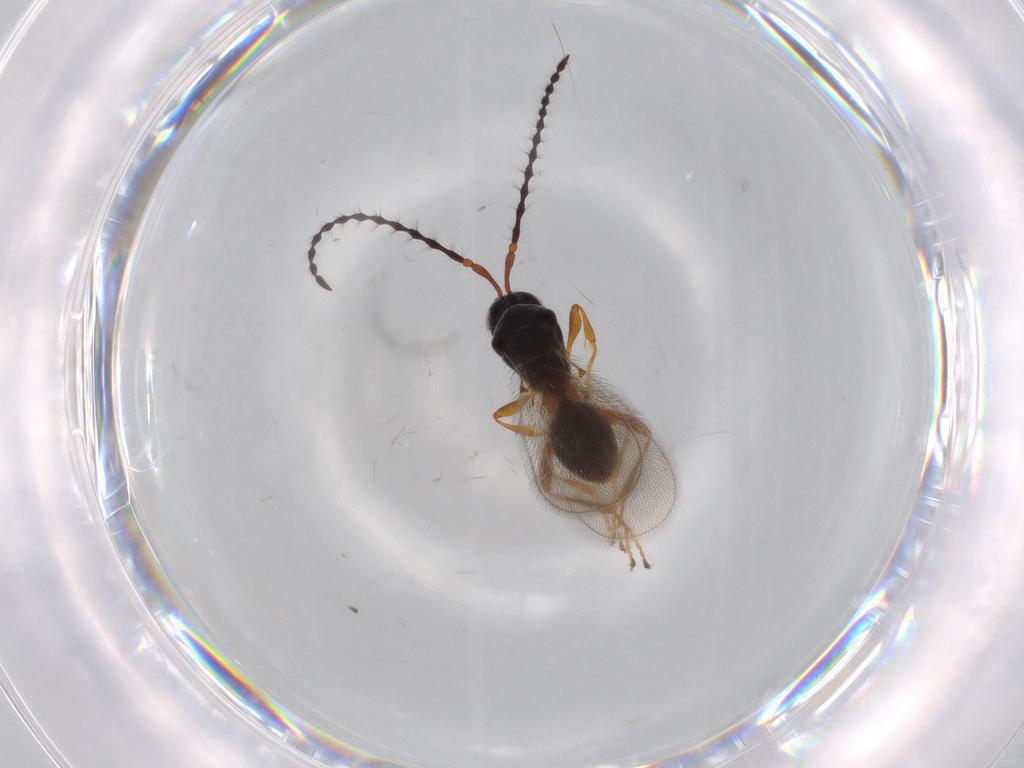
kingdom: Animalia
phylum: Arthropoda
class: Insecta
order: Hymenoptera
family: Diapriidae
